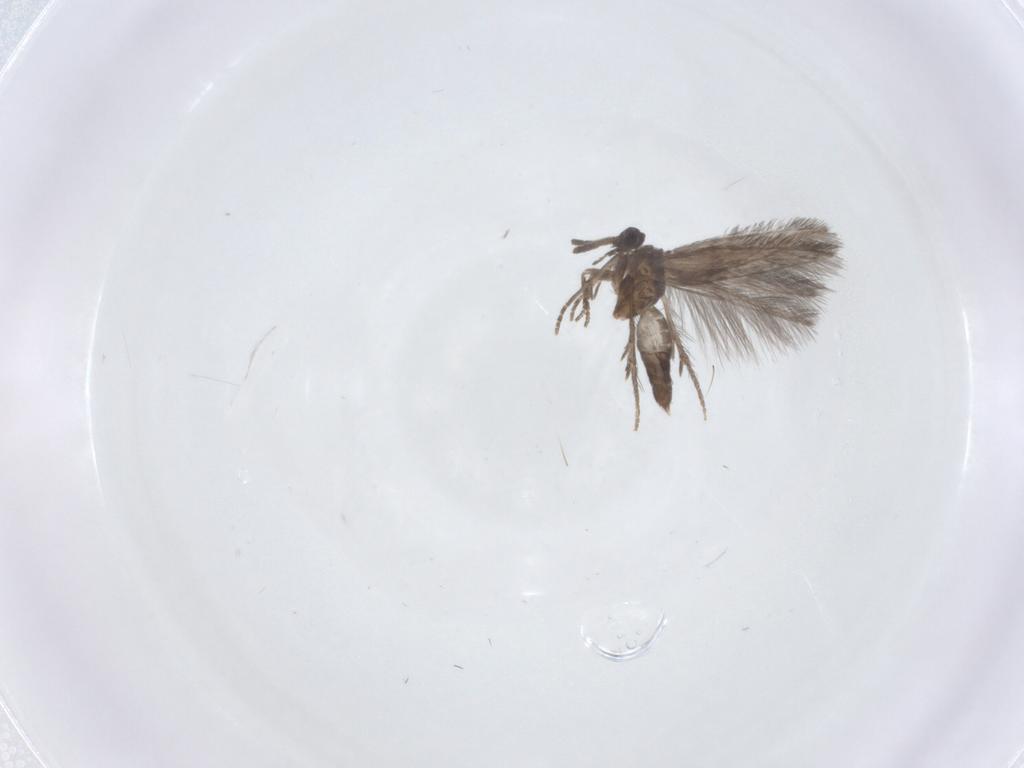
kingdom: Animalia
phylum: Arthropoda
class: Insecta
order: Trichoptera
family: Hydroptilidae
